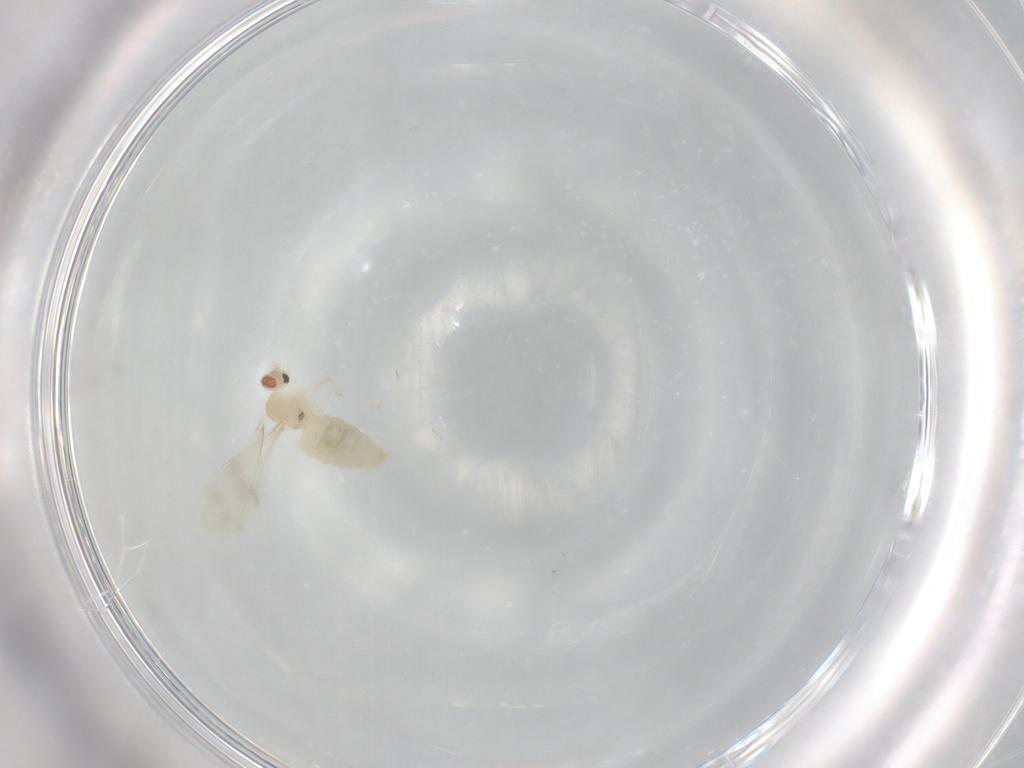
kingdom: Animalia
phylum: Arthropoda
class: Insecta
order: Diptera
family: Cecidomyiidae
